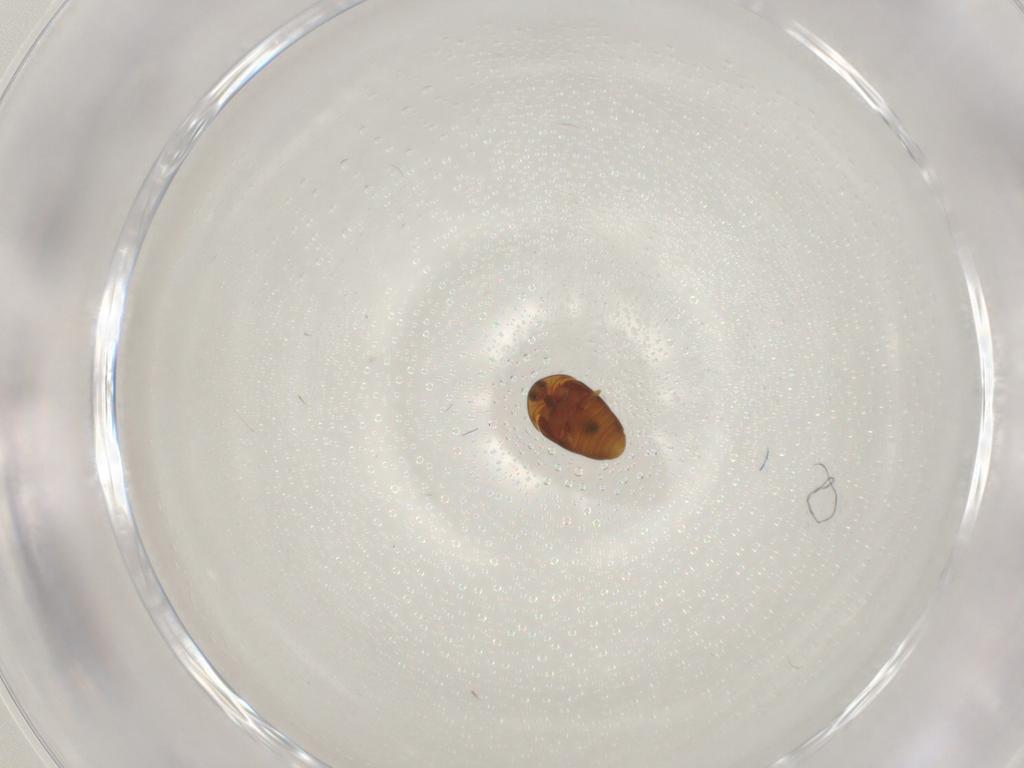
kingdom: Animalia
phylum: Arthropoda
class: Insecta
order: Coleoptera
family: Corylophidae
